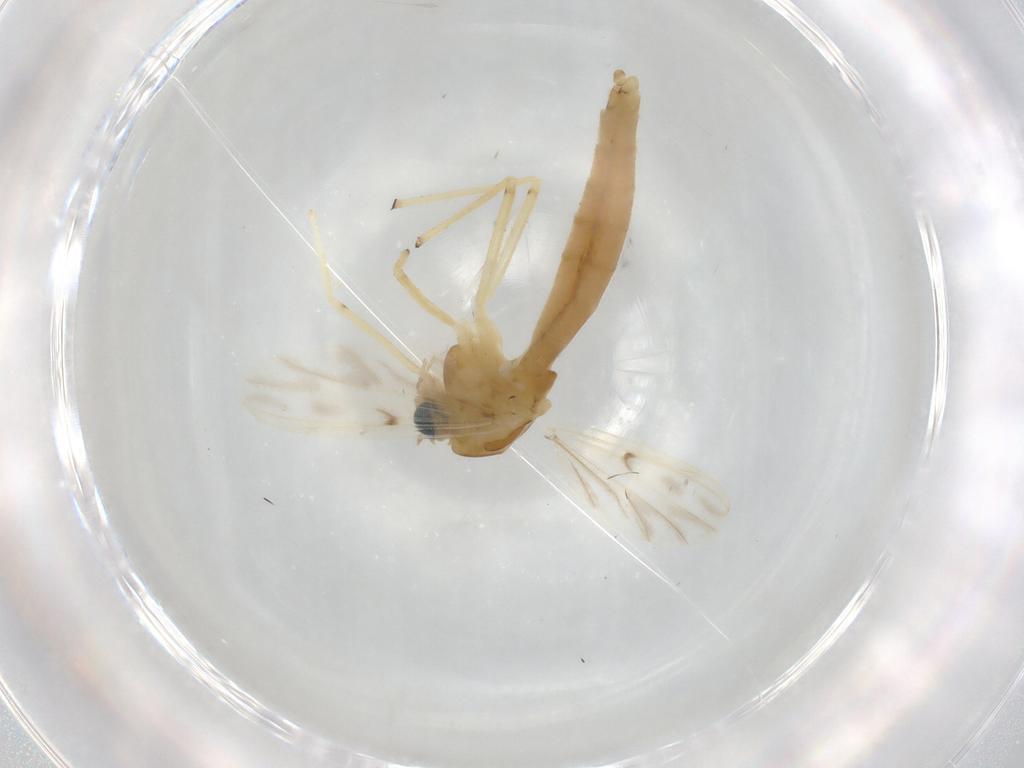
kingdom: Animalia
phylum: Arthropoda
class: Insecta
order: Diptera
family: Chironomidae
